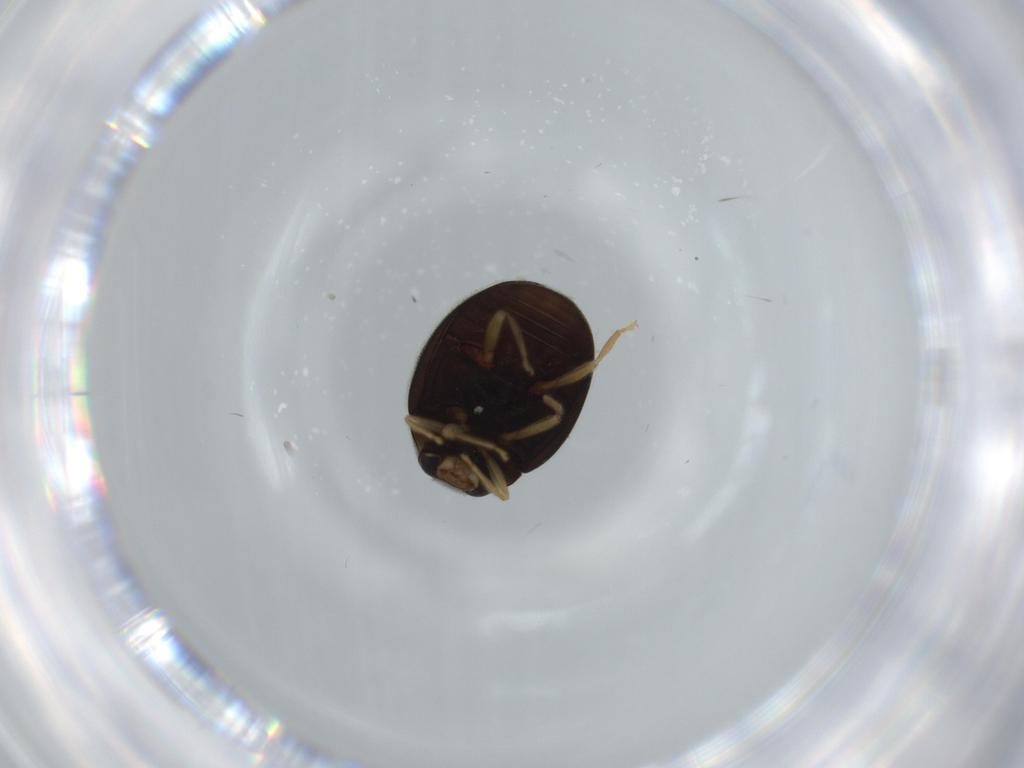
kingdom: Animalia
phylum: Arthropoda
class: Insecta
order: Coleoptera
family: Coccinellidae
